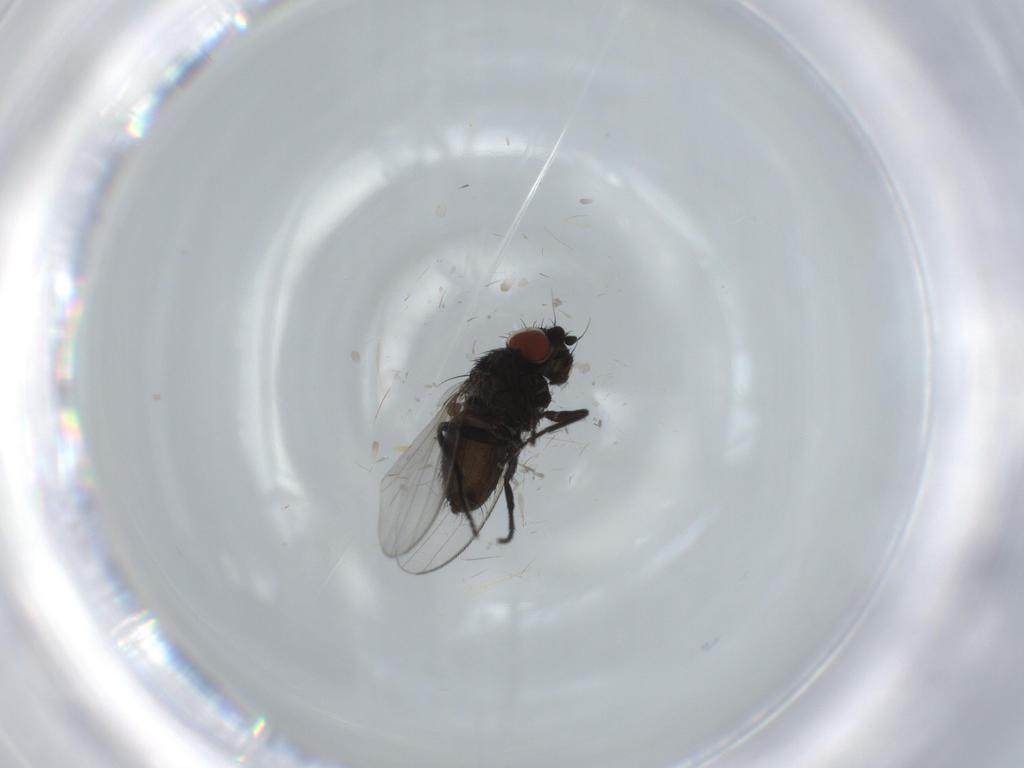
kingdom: Animalia
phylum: Arthropoda
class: Insecta
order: Diptera
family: Milichiidae
